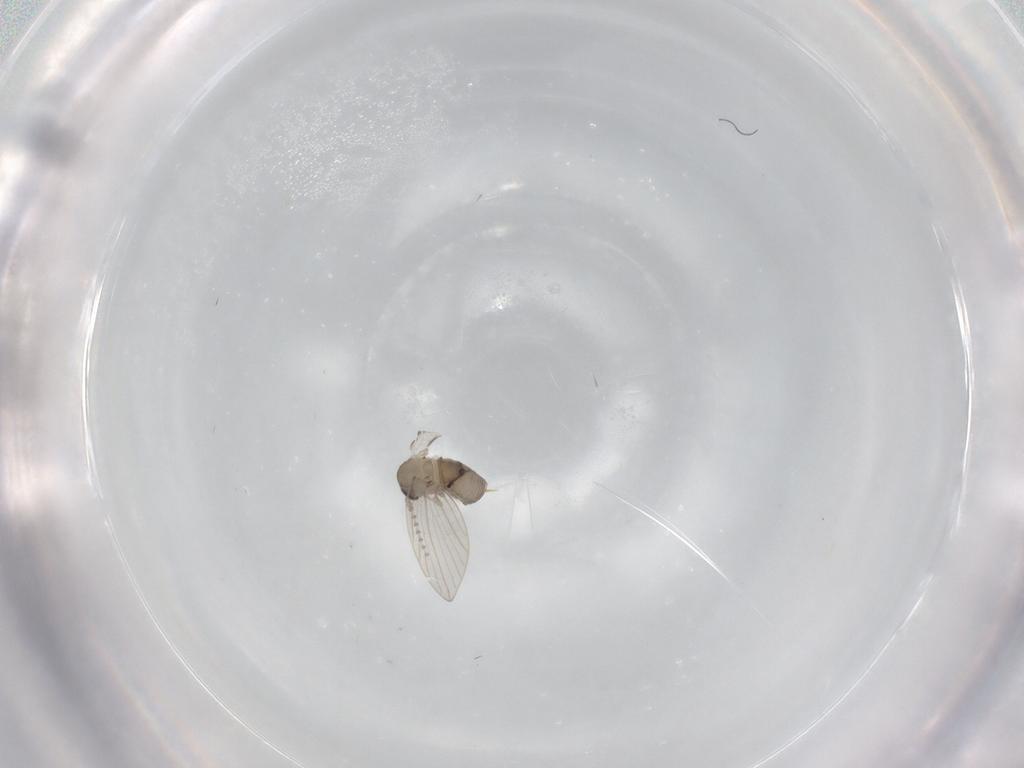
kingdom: Animalia
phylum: Arthropoda
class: Insecta
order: Diptera
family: Psychodidae
